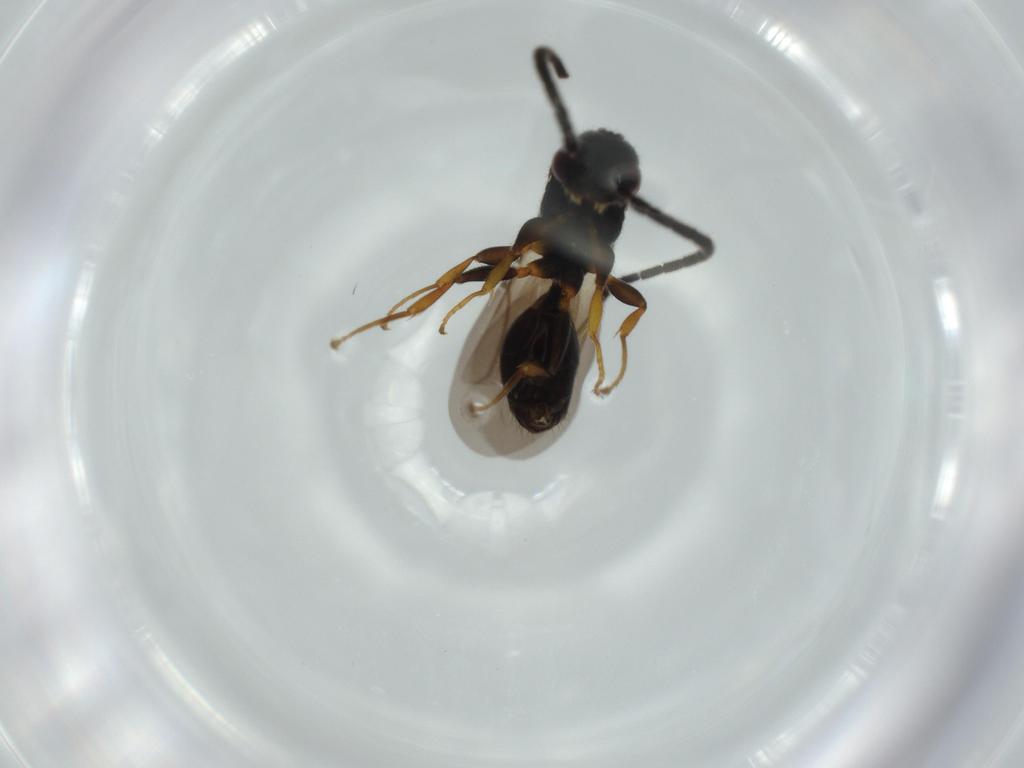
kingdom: Animalia
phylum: Arthropoda
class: Insecta
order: Hymenoptera
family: Bethylidae
